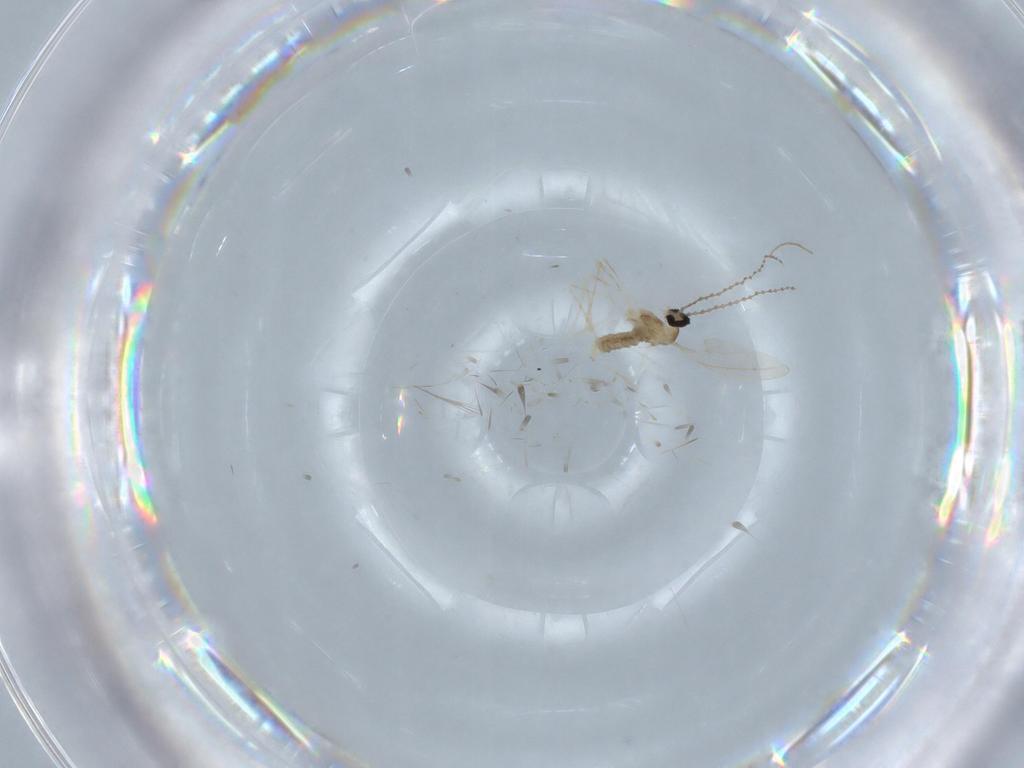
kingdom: Animalia
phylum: Arthropoda
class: Insecta
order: Diptera
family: Cecidomyiidae
